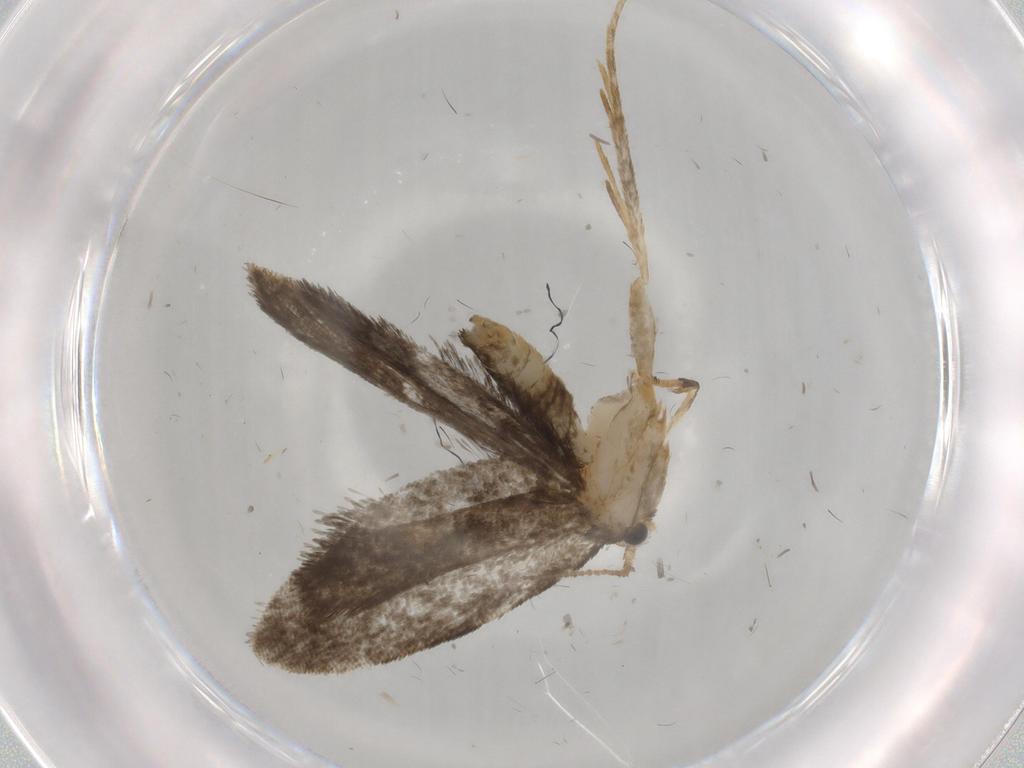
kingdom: Animalia
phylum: Arthropoda
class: Insecta
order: Lepidoptera
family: Psychidae
